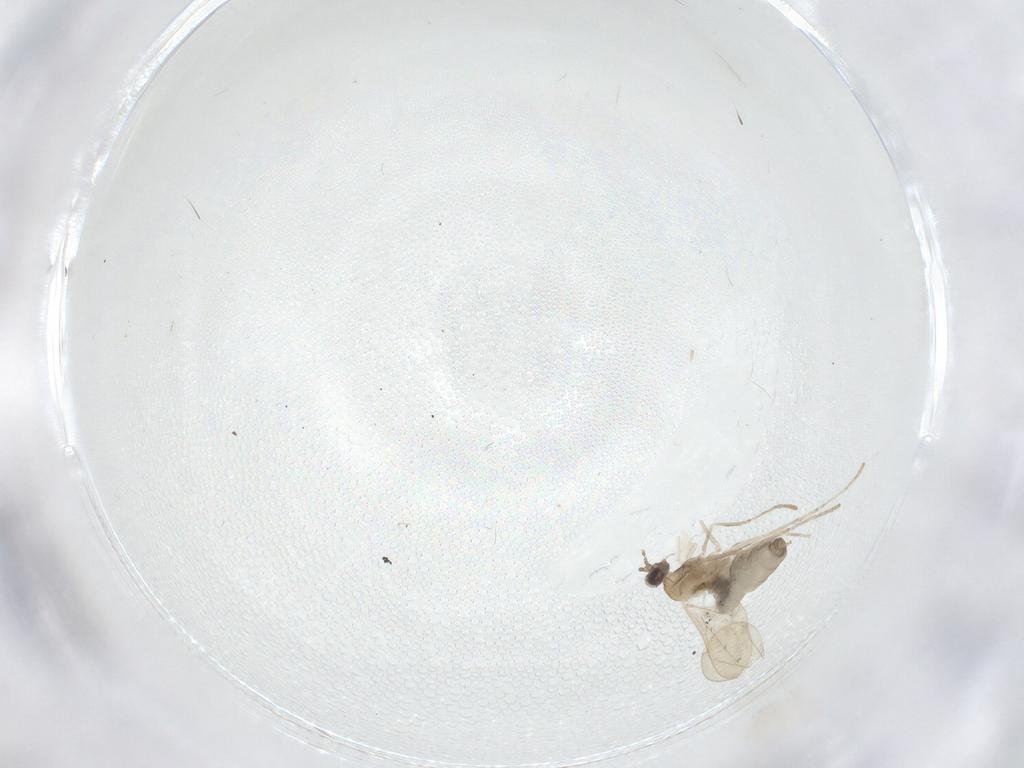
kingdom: Animalia
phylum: Arthropoda
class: Insecta
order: Diptera
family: Cecidomyiidae
